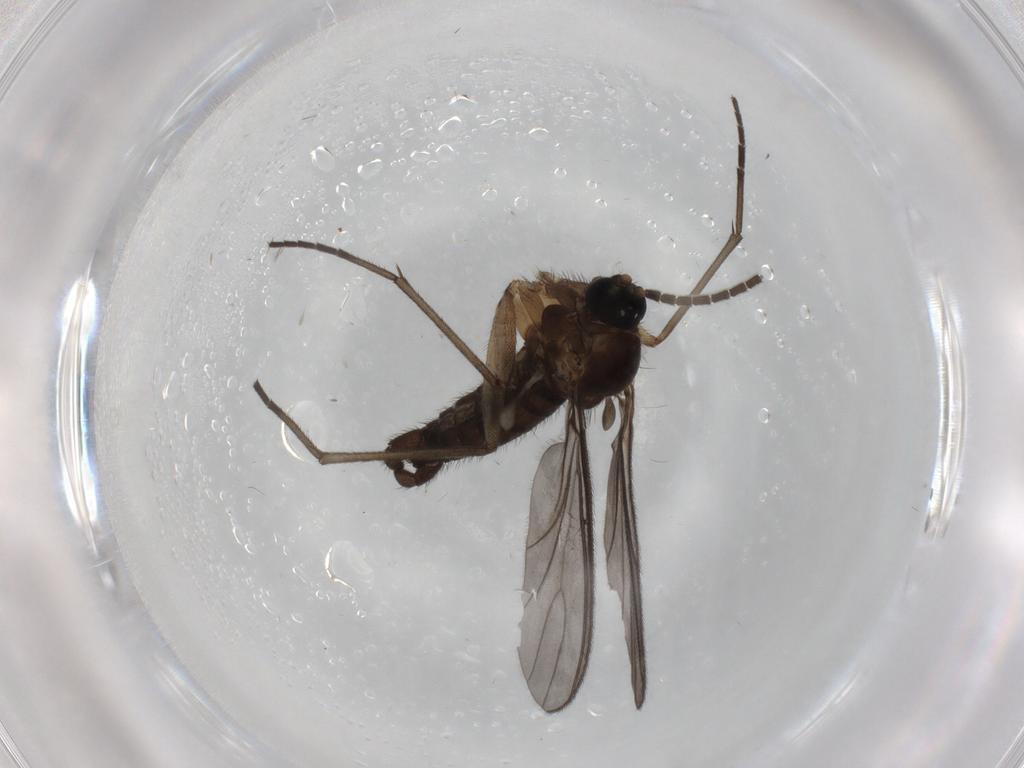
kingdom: Animalia
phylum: Arthropoda
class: Insecta
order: Diptera
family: Sciaridae
